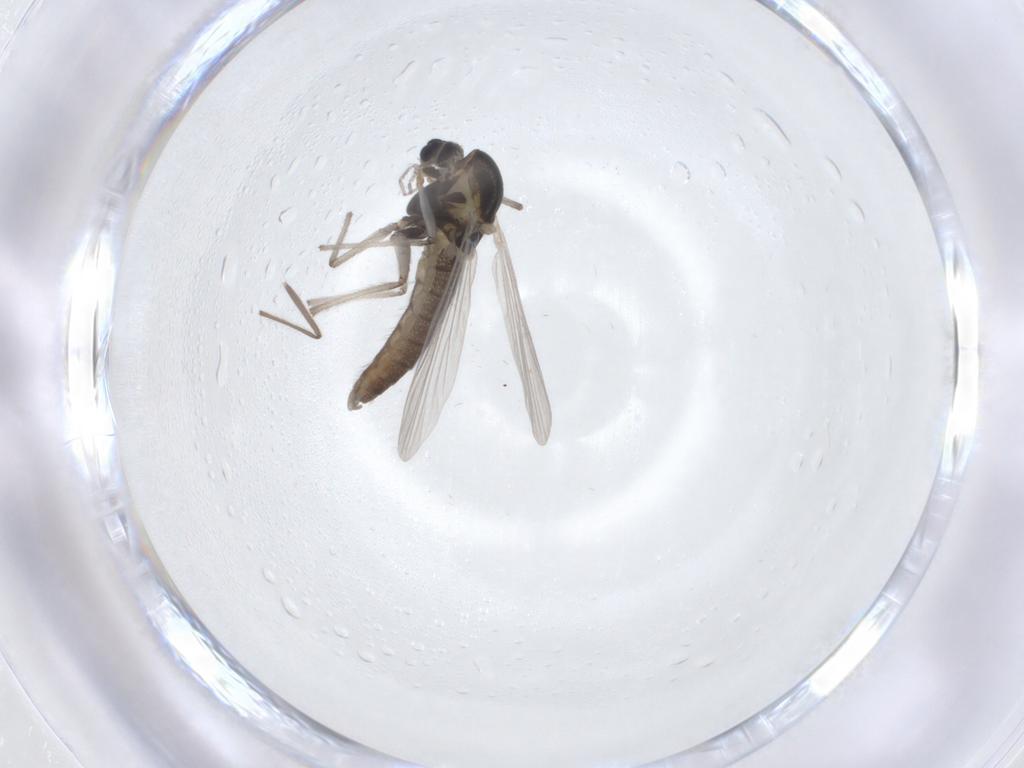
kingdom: Animalia
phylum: Arthropoda
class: Insecta
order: Diptera
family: Chironomidae
